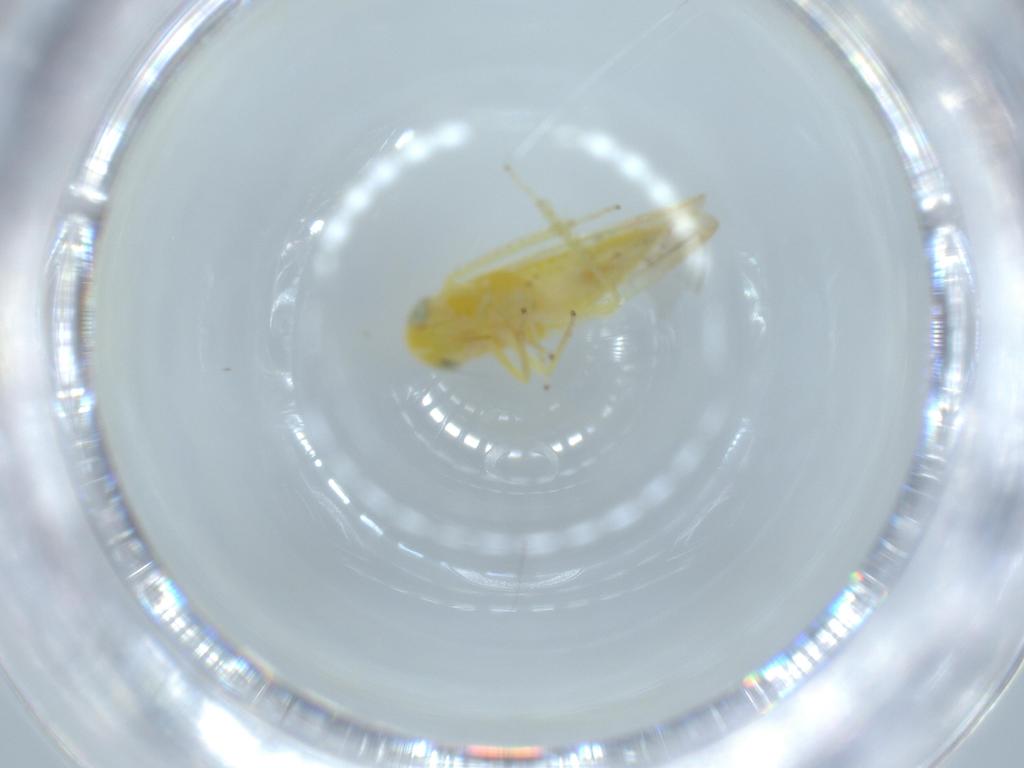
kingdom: Animalia
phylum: Arthropoda
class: Insecta
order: Hemiptera
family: Cicadellidae
